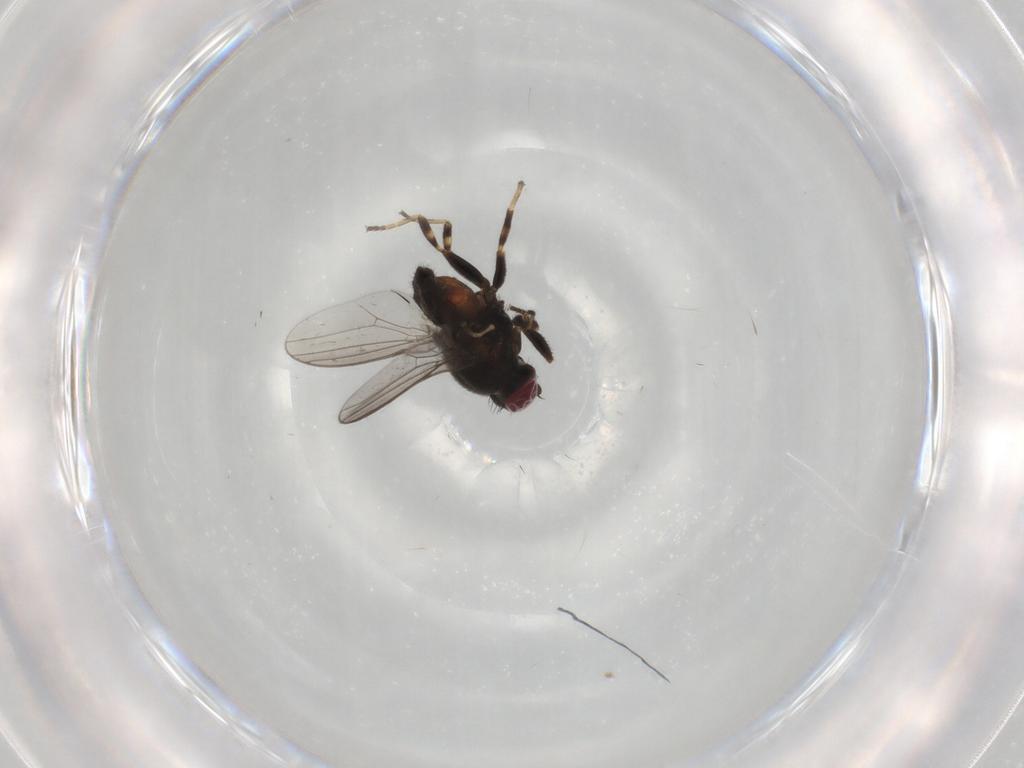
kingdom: Animalia
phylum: Arthropoda
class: Insecta
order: Diptera
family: Chloropidae
